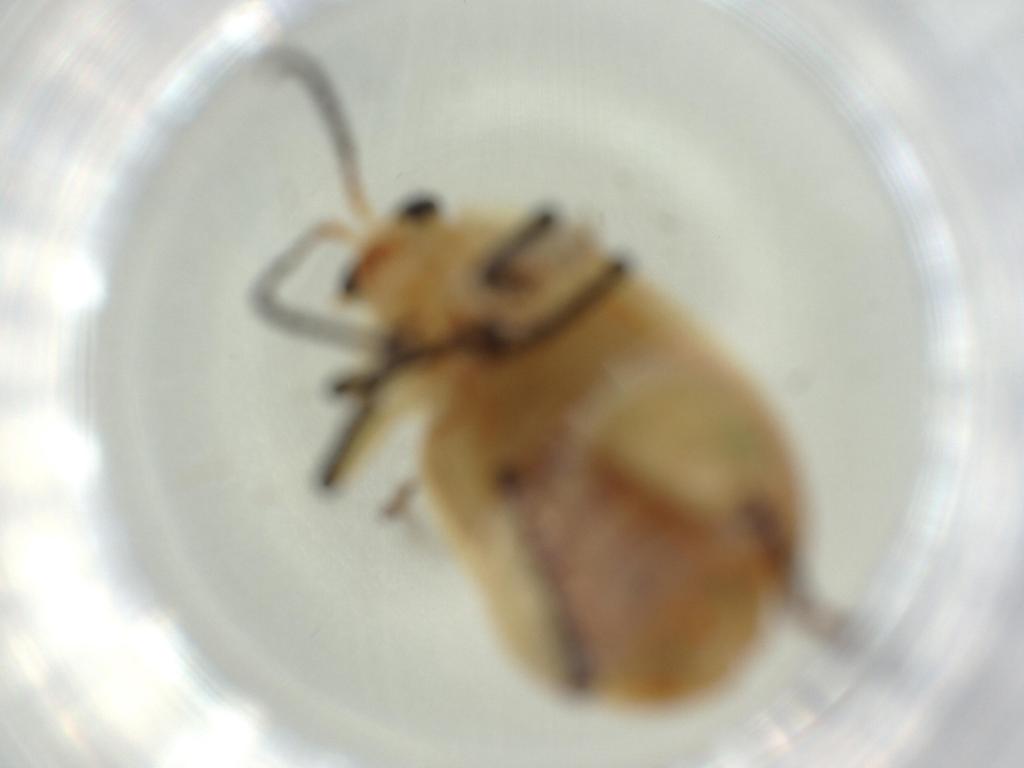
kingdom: Animalia
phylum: Arthropoda
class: Insecta
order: Coleoptera
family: Chrysomelidae
